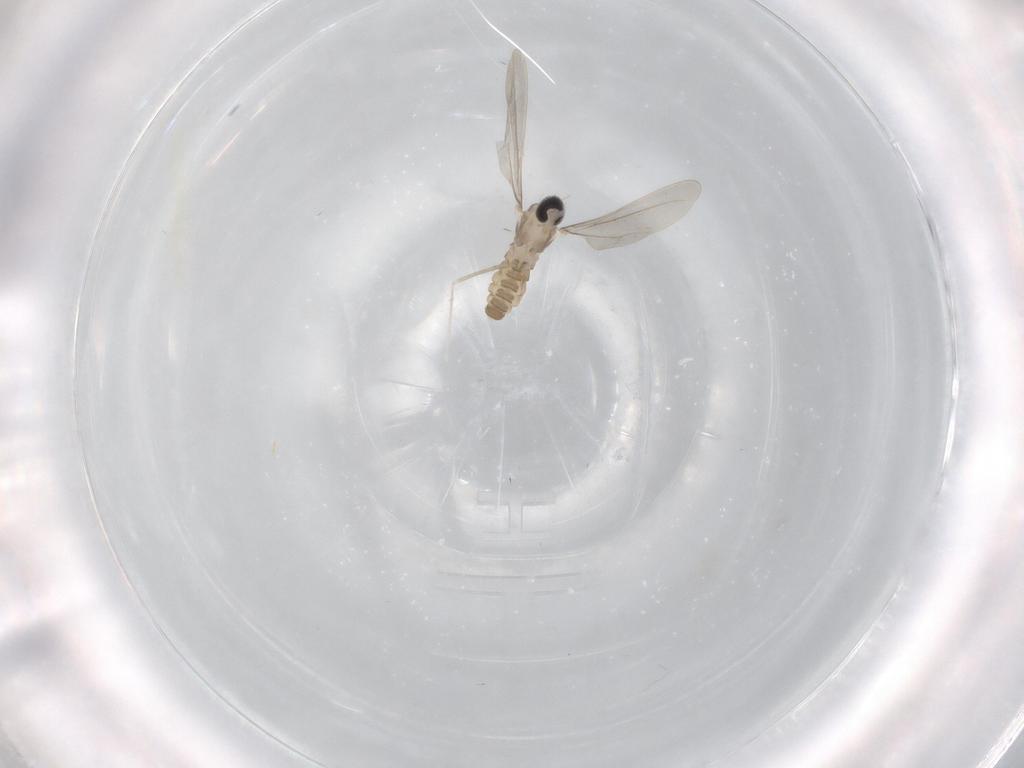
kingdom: Animalia
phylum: Arthropoda
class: Insecta
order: Diptera
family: Cecidomyiidae
